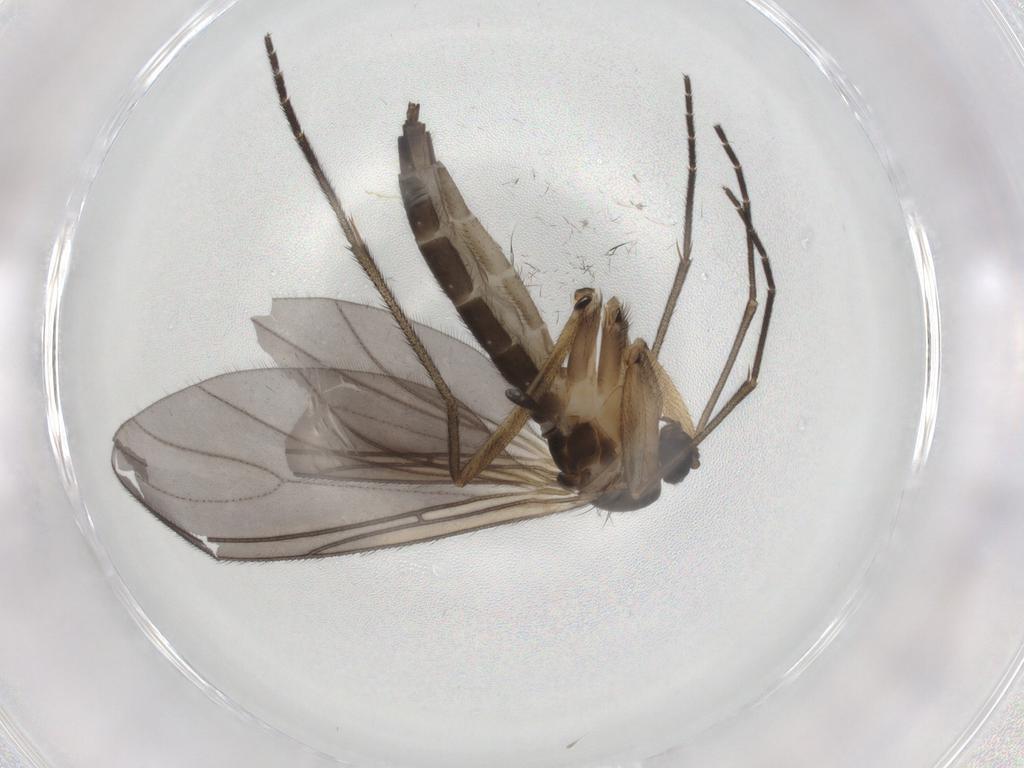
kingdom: Animalia
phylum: Arthropoda
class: Insecta
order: Diptera
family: Sciaridae
